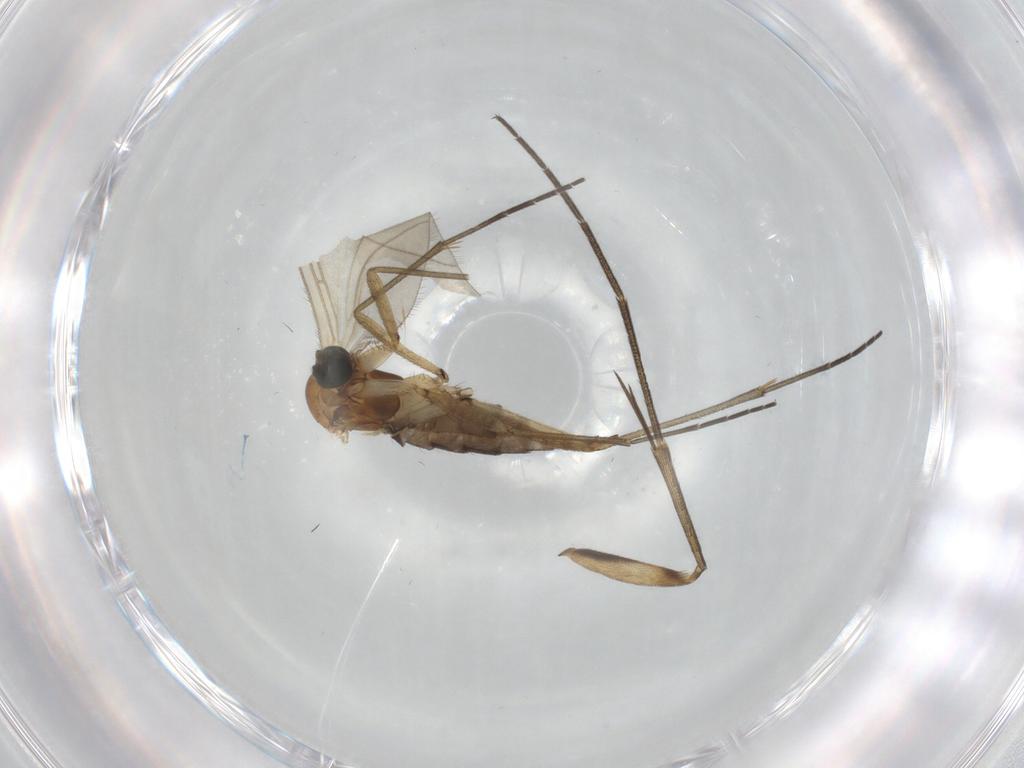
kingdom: Animalia
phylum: Arthropoda
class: Insecta
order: Diptera
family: Sciaridae
